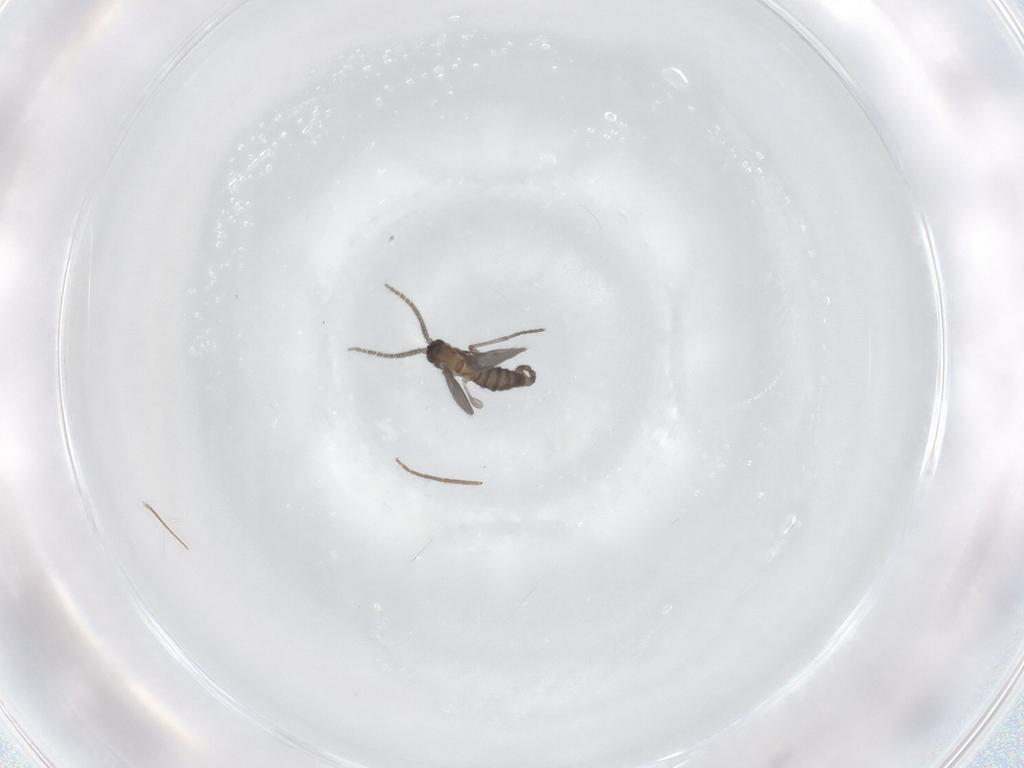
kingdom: Animalia
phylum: Arthropoda
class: Insecta
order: Diptera
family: Sciaridae
